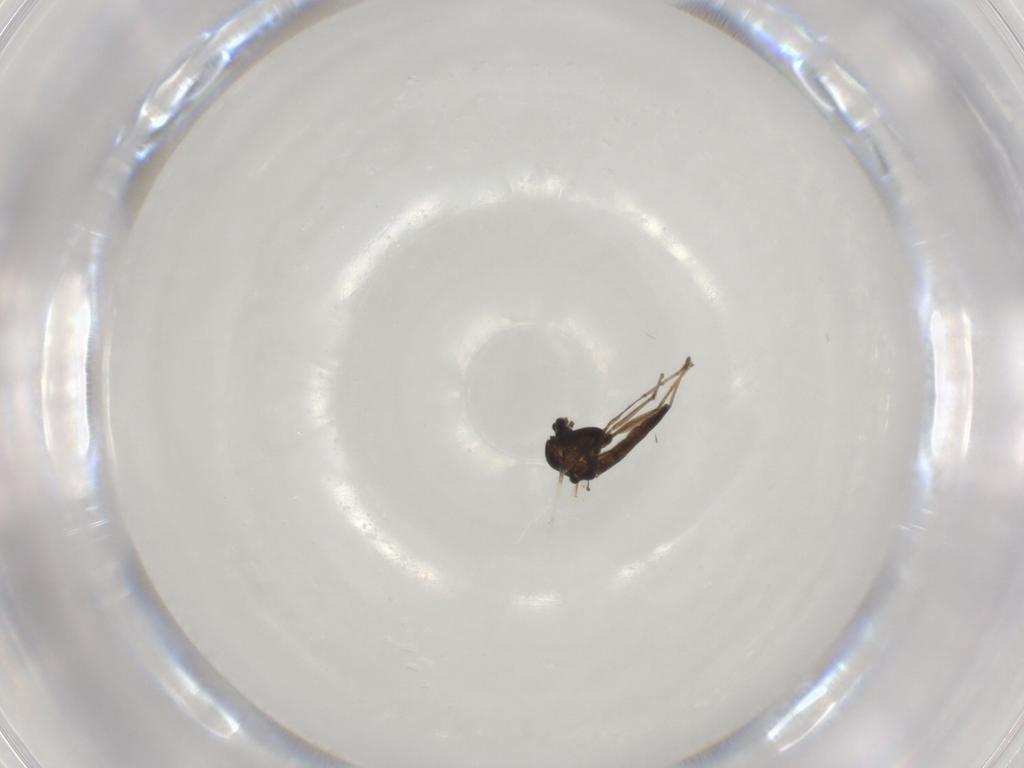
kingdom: Animalia
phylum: Arthropoda
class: Insecta
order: Diptera
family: Chironomidae
